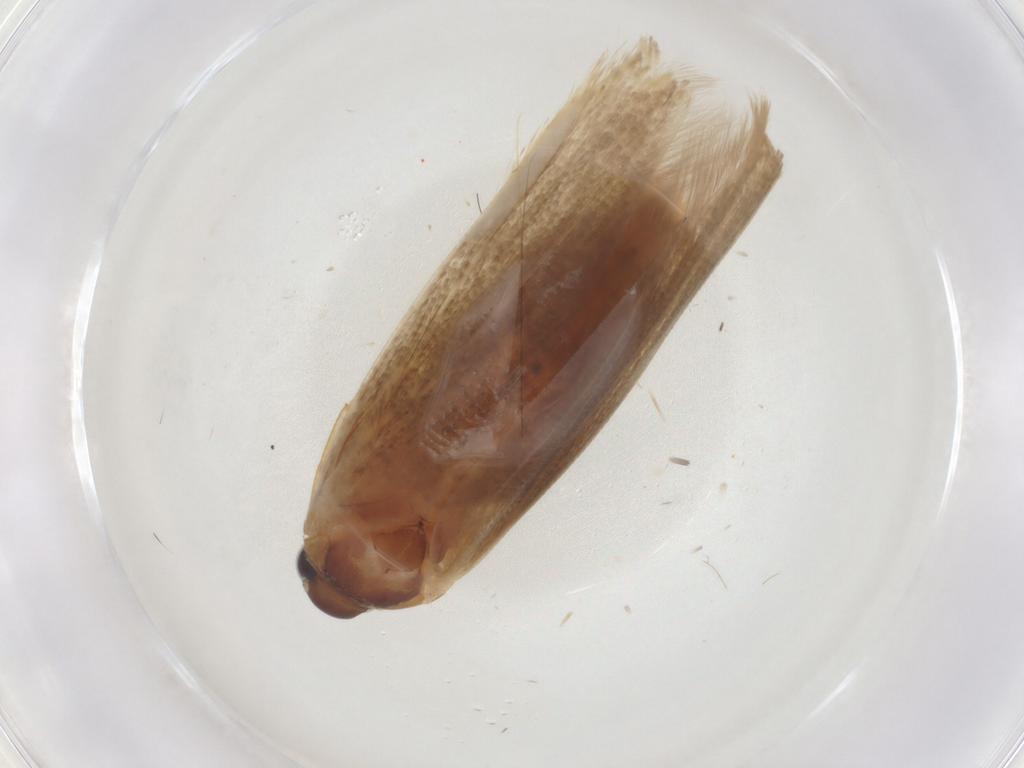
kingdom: Animalia
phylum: Arthropoda
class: Insecta
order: Lepidoptera
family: Blastobasidae
